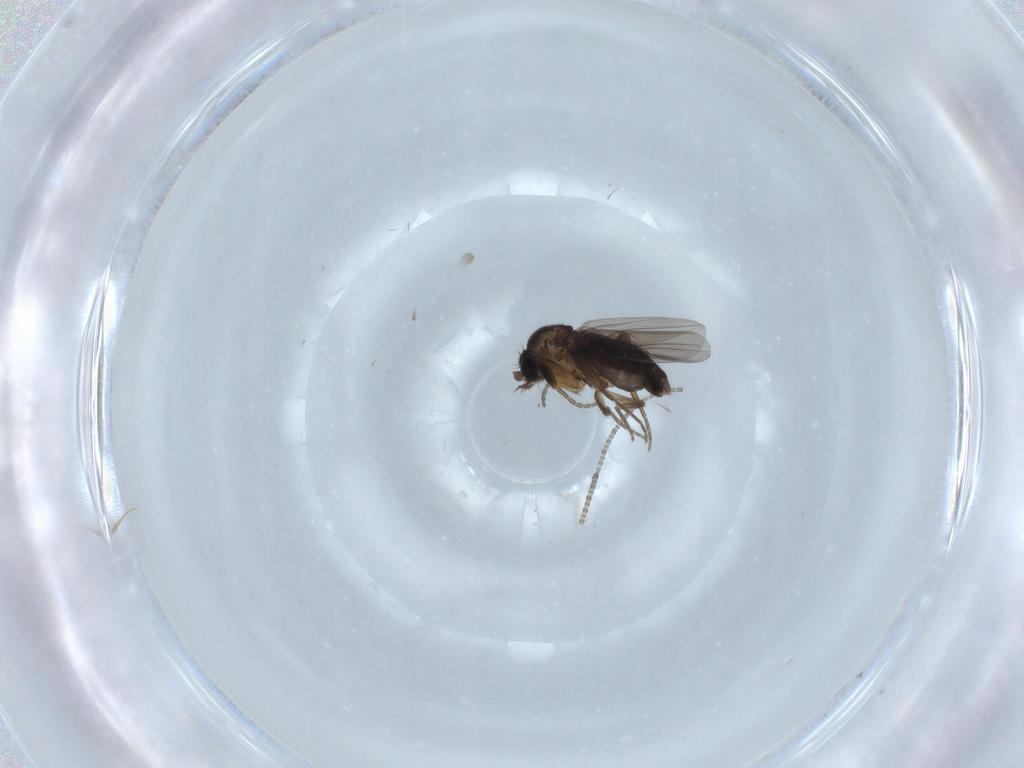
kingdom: Animalia
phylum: Arthropoda
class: Insecta
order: Diptera
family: Phoridae
